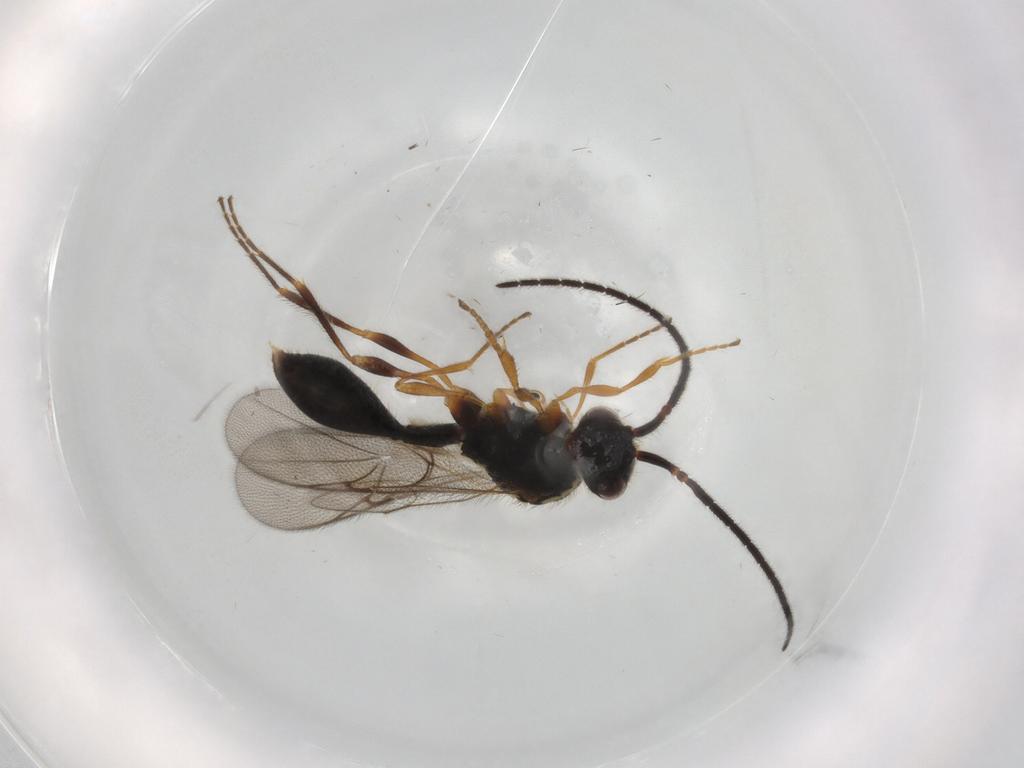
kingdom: Animalia
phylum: Arthropoda
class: Insecta
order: Hymenoptera
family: Diapriidae
